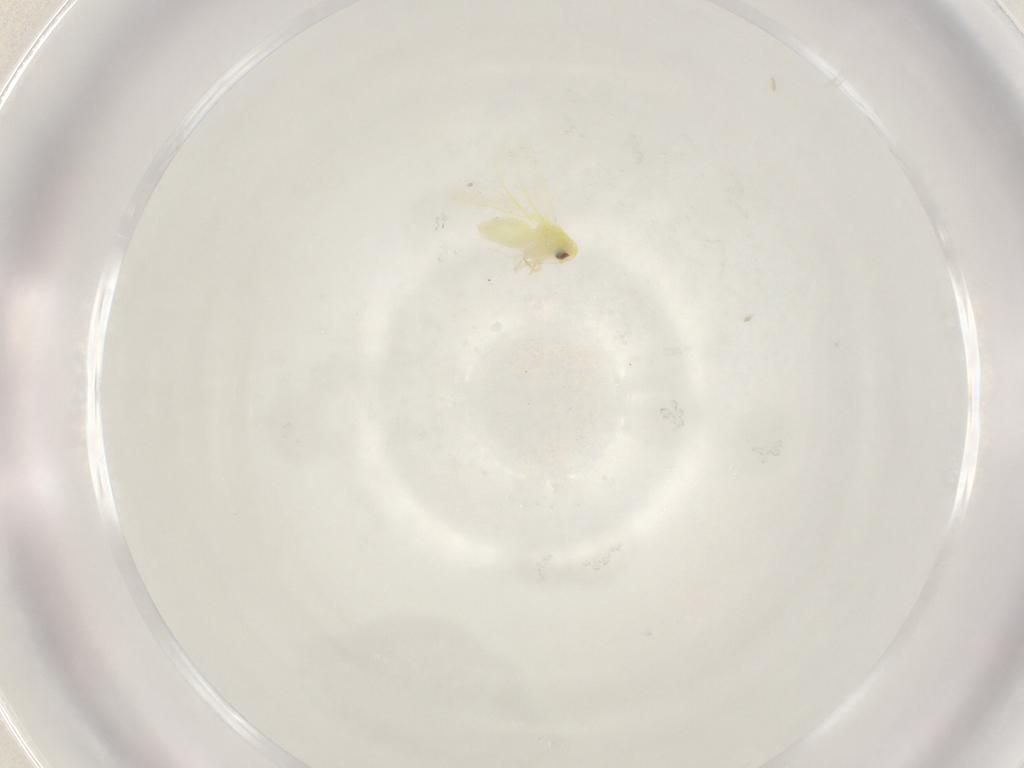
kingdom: Animalia
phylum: Arthropoda
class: Insecta
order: Hemiptera
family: Aleyrodidae
